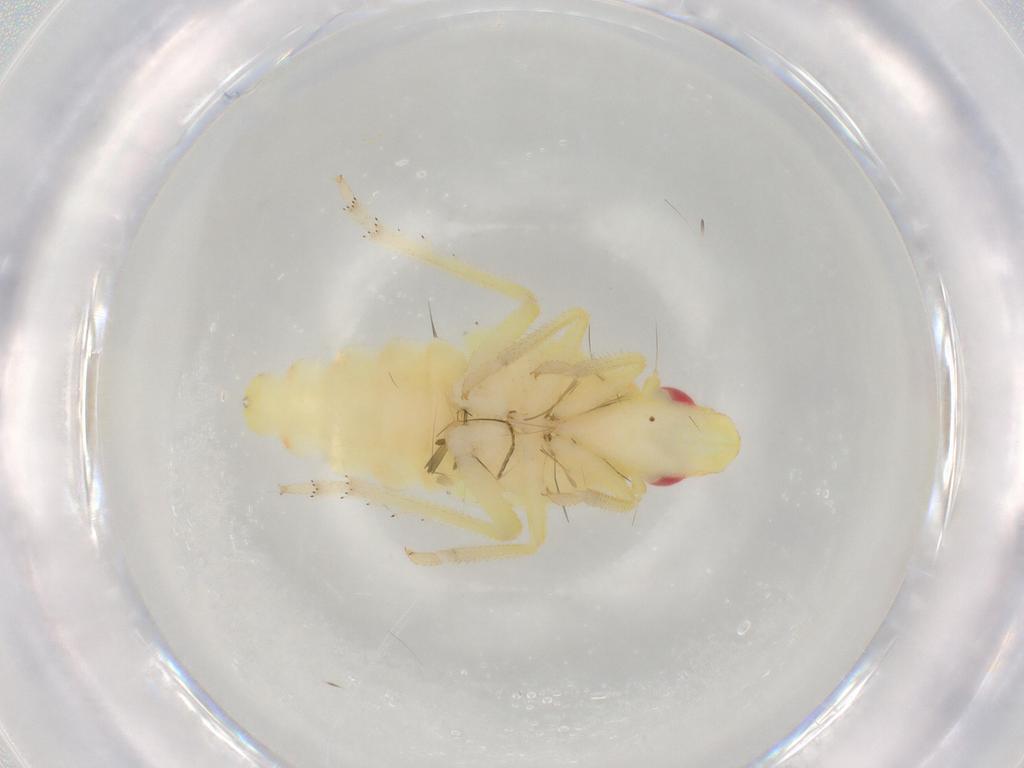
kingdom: Animalia
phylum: Arthropoda
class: Insecta
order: Hemiptera
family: Tropiduchidae
